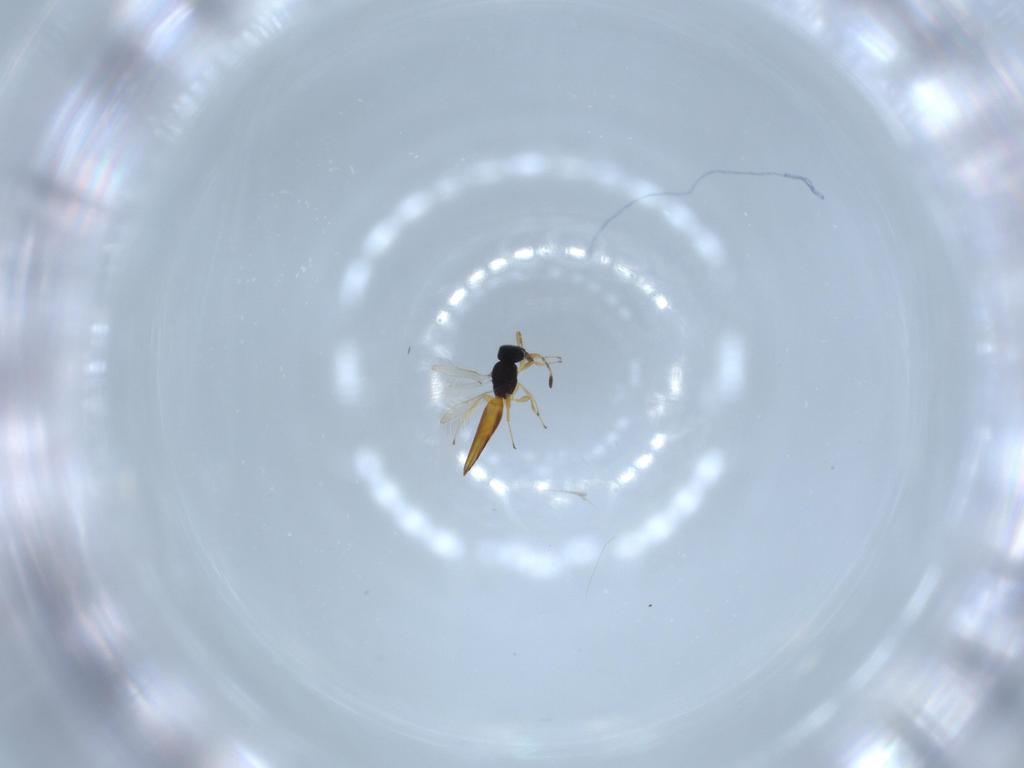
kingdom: Animalia
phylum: Arthropoda
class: Insecta
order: Hymenoptera
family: Scelionidae
